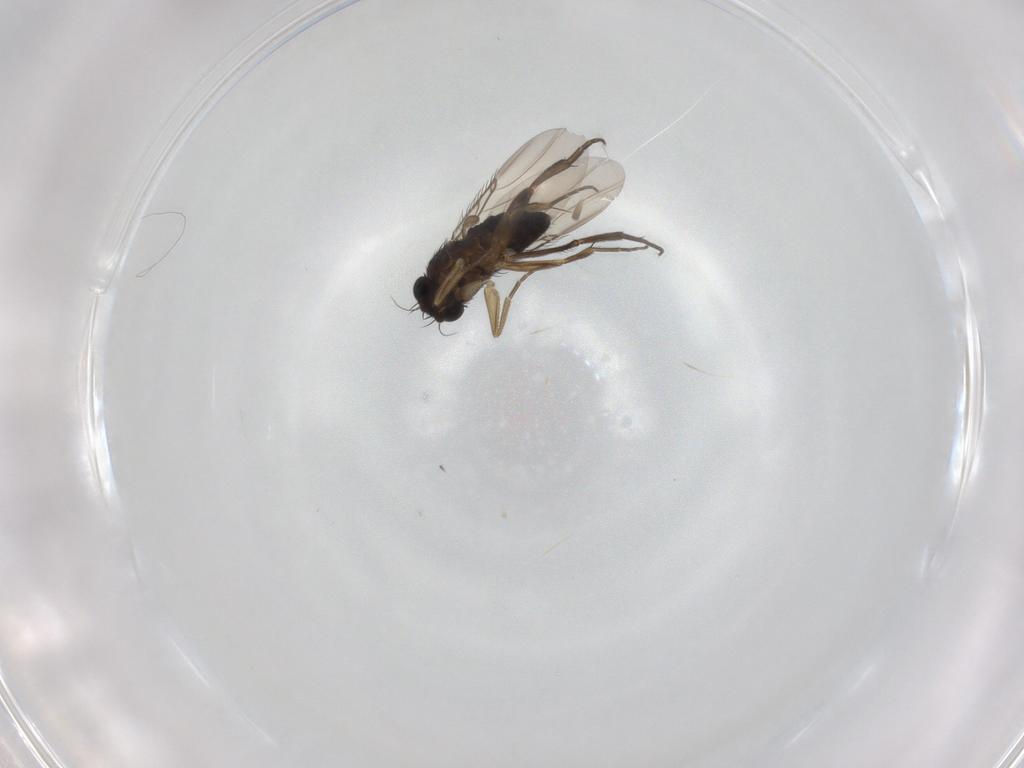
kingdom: Animalia
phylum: Arthropoda
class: Insecta
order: Diptera
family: Phoridae
